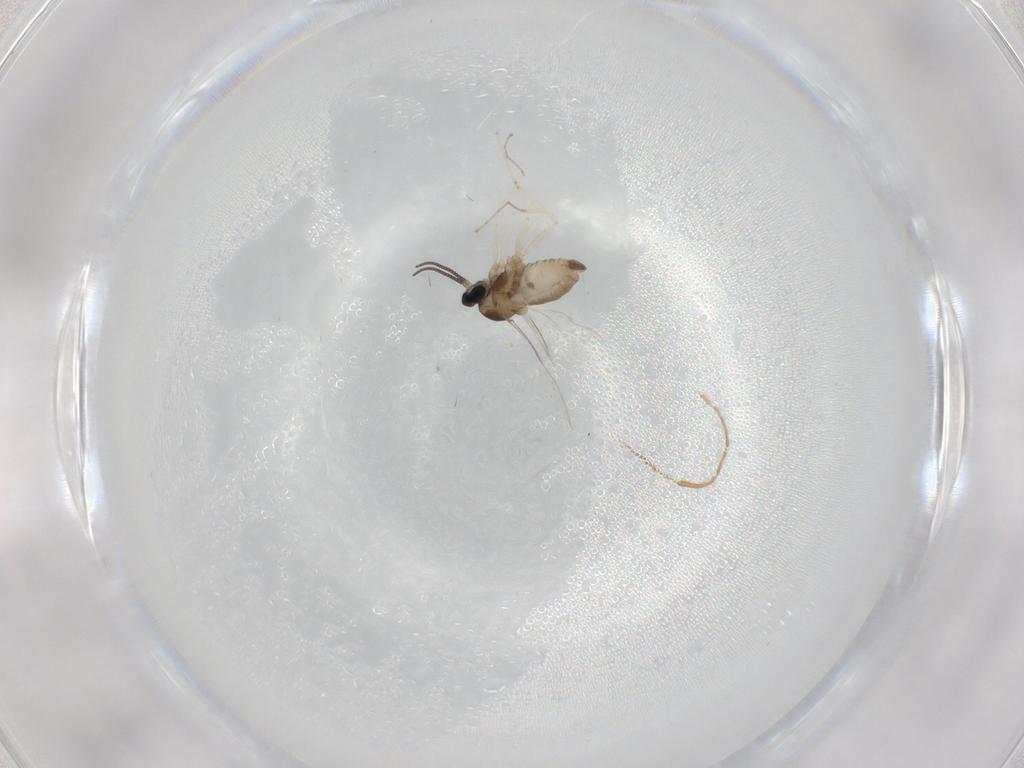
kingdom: Animalia
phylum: Arthropoda
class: Insecta
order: Diptera
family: Cecidomyiidae
